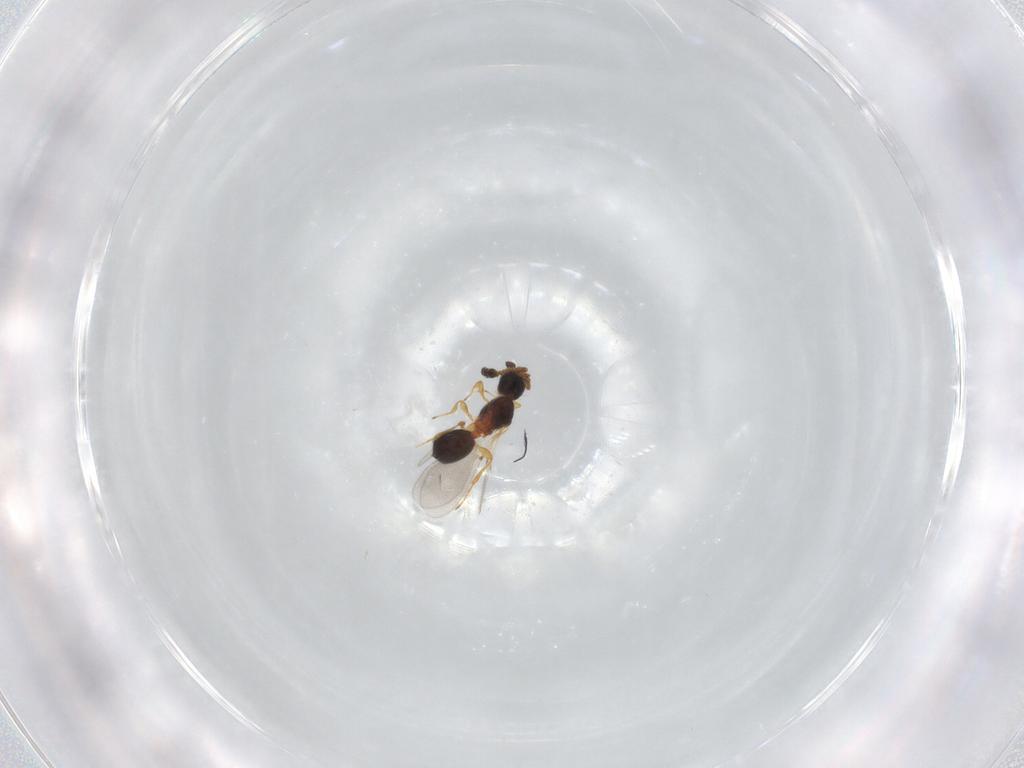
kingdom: Animalia
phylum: Arthropoda
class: Insecta
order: Hymenoptera
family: Diapriidae
